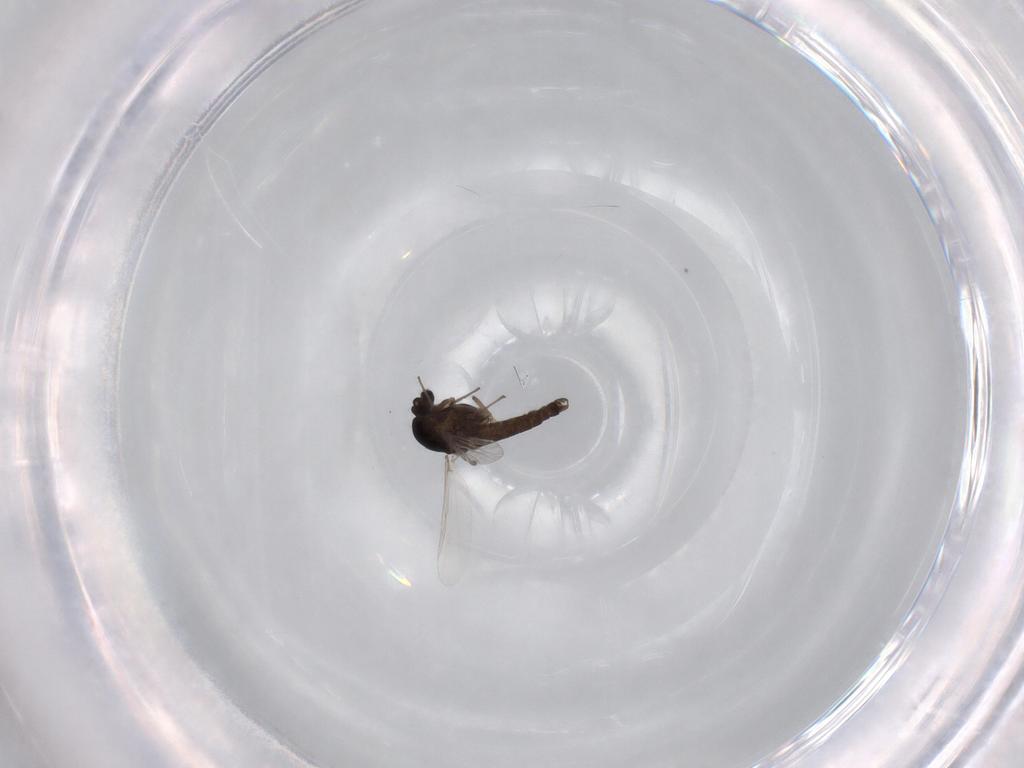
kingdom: Animalia
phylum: Arthropoda
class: Insecta
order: Diptera
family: Chironomidae
